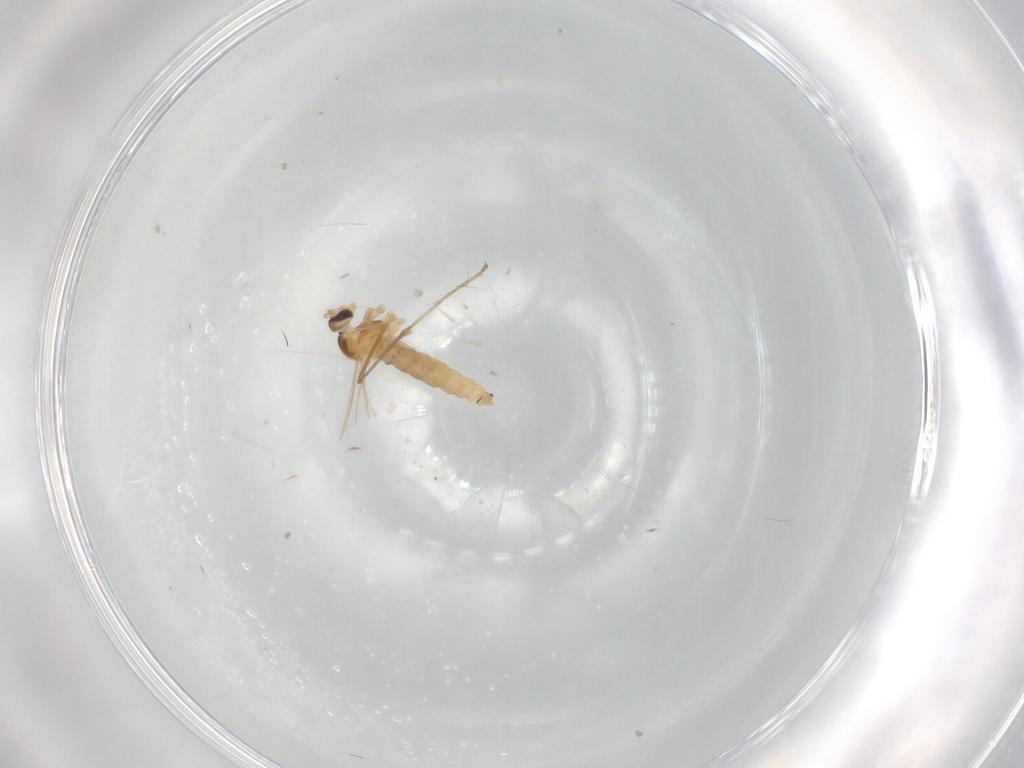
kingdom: Animalia
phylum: Arthropoda
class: Insecta
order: Diptera
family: Cecidomyiidae
